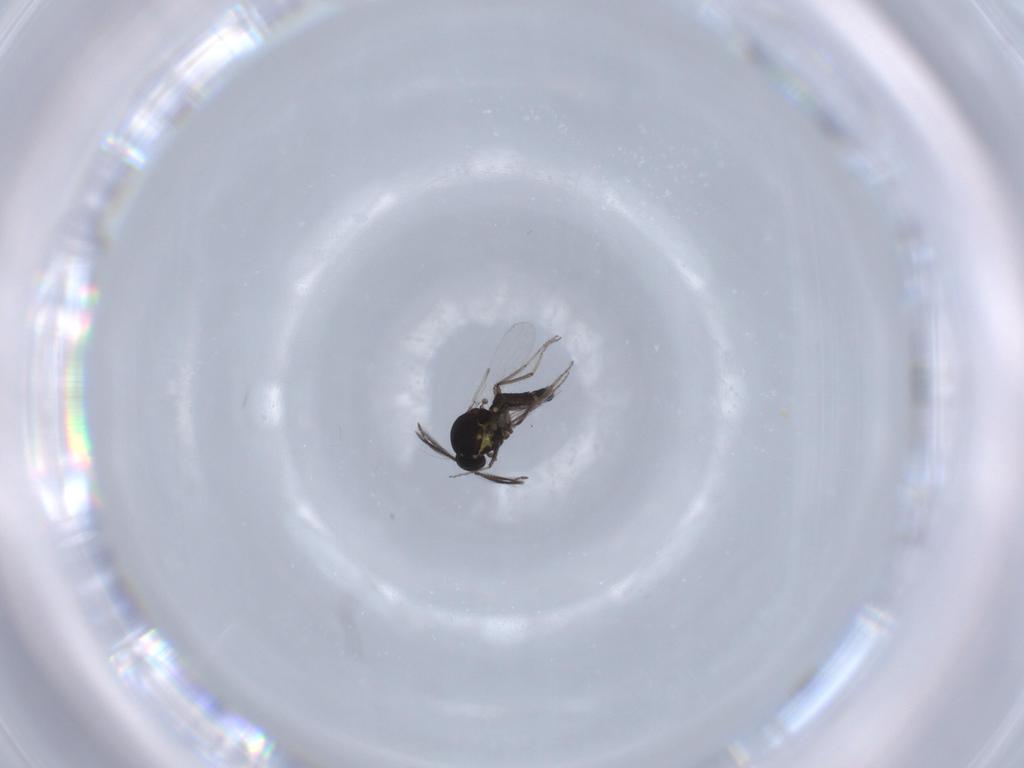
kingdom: Animalia
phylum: Arthropoda
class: Insecta
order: Diptera
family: Ceratopogonidae
